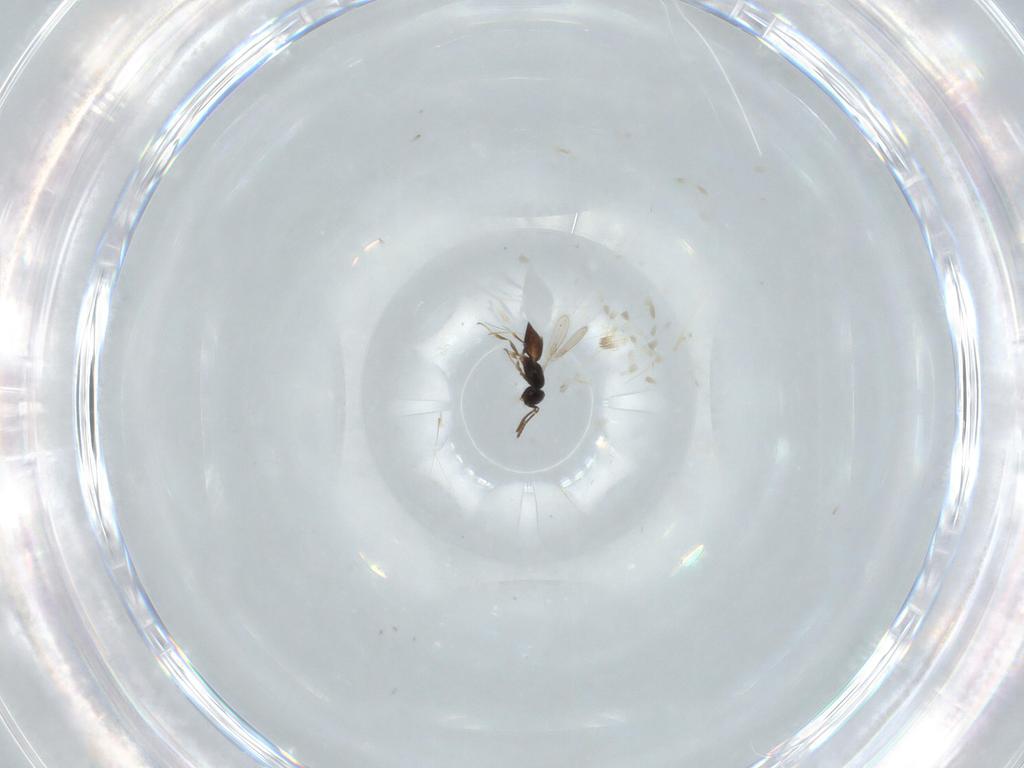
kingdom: Animalia
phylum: Arthropoda
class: Insecta
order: Hymenoptera
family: Scelionidae
